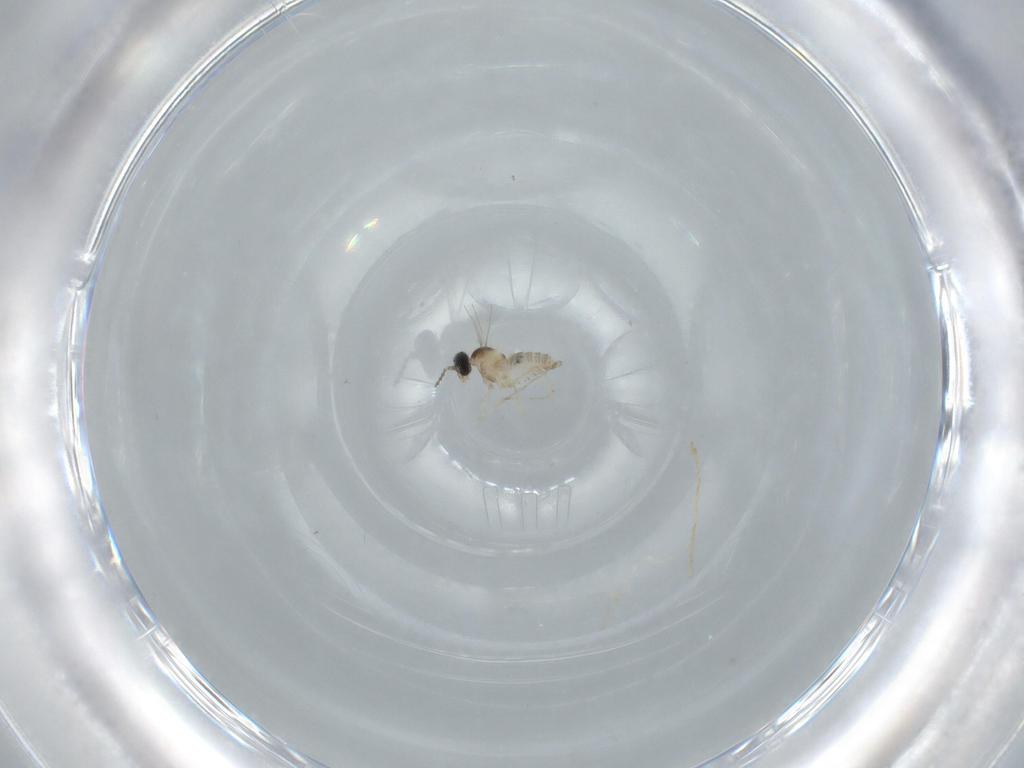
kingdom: Animalia
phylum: Arthropoda
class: Insecta
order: Diptera
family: Cecidomyiidae
